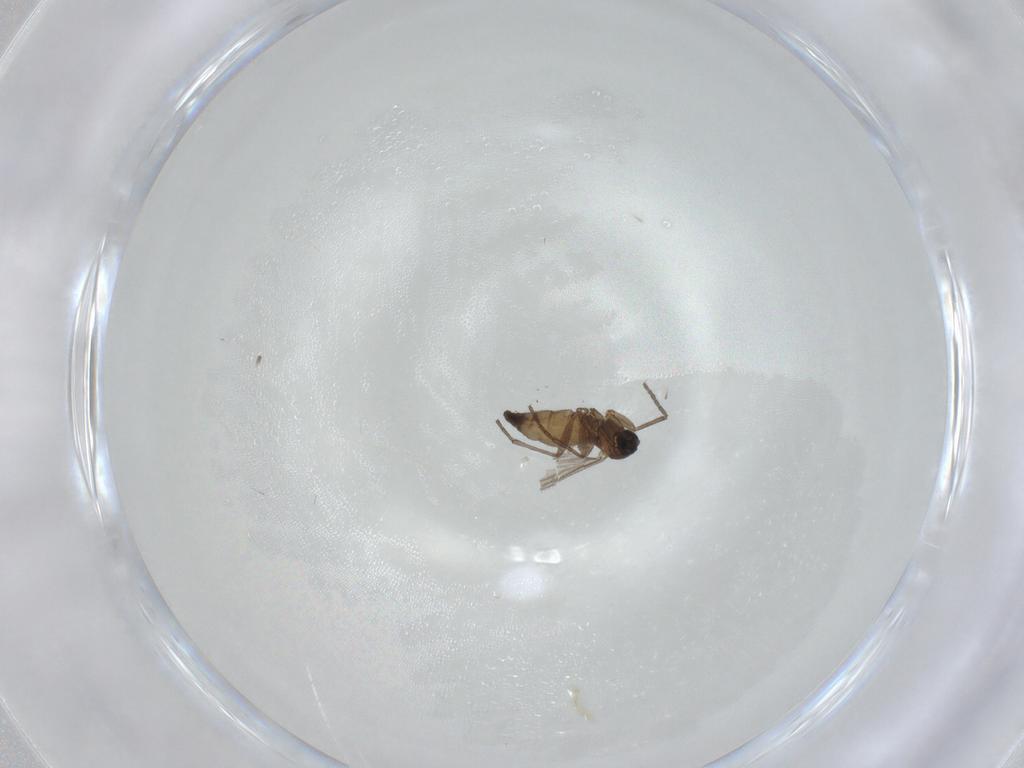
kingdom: Animalia
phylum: Arthropoda
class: Insecta
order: Diptera
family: Sciaridae
